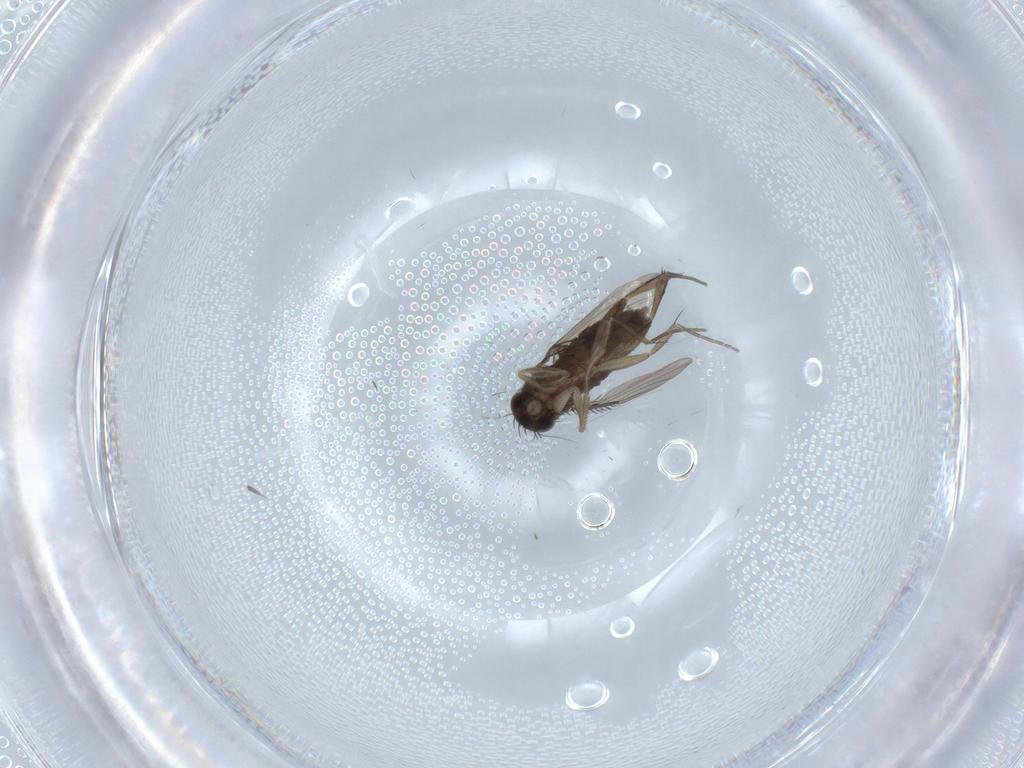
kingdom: Animalia
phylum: Arthropoda
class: Insecta
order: Diptera
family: Phoridae
